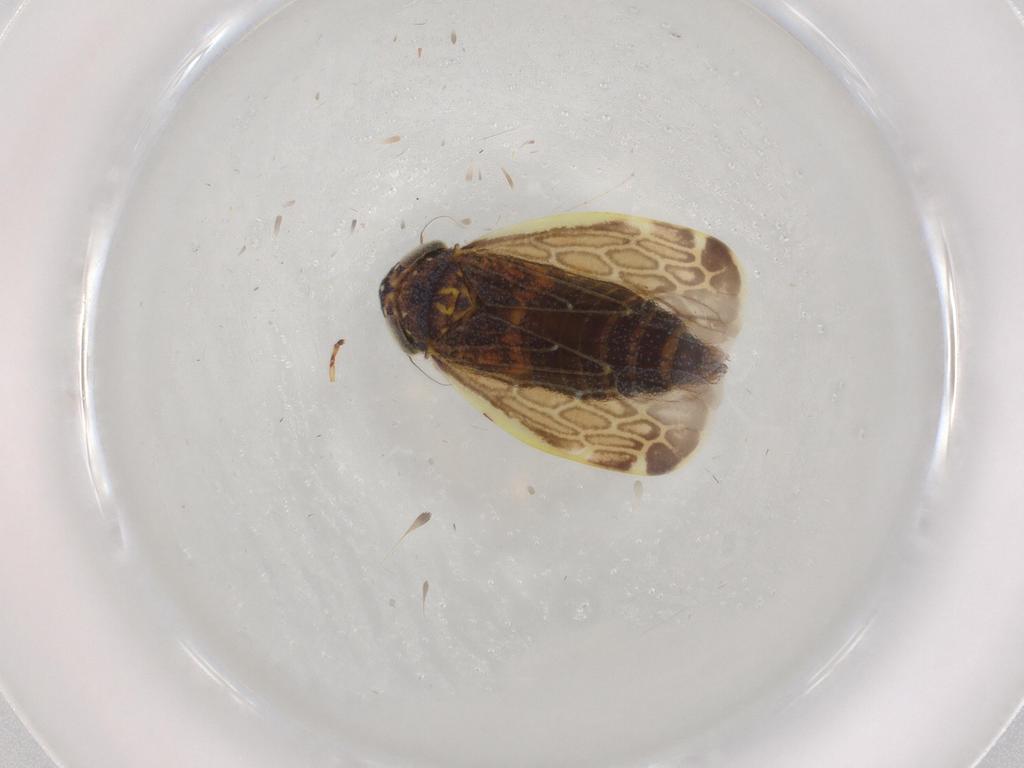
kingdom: Animalia
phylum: Arthropoda
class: Insecta
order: Hemiptera
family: Cicadellidae
